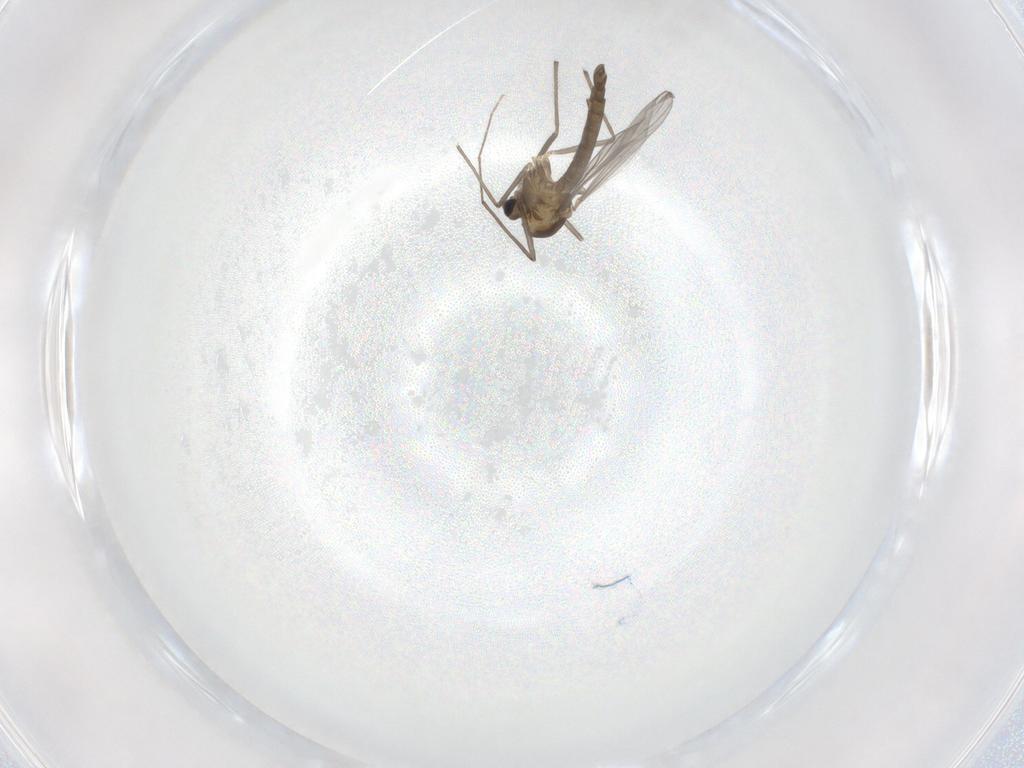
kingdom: Animalia
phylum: Arthropoda
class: Insecta
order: Diptera
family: Chironomidae
